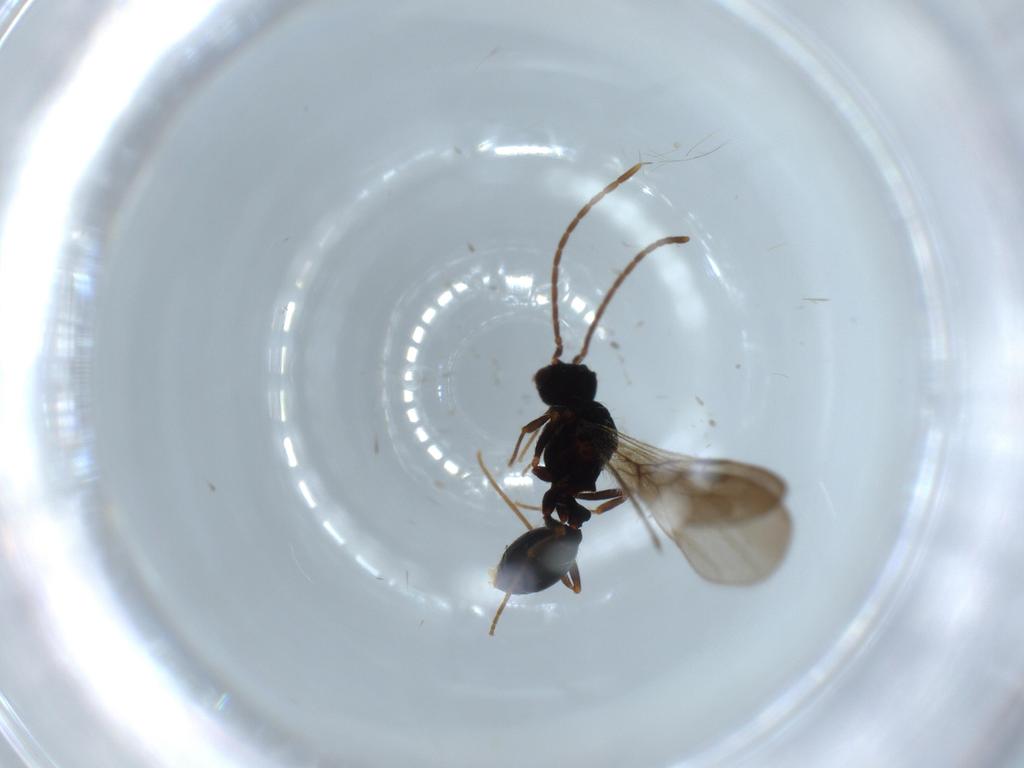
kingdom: Animalia
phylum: Arthropoda
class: Insecta
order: Hymenoptera
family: Formicidae
